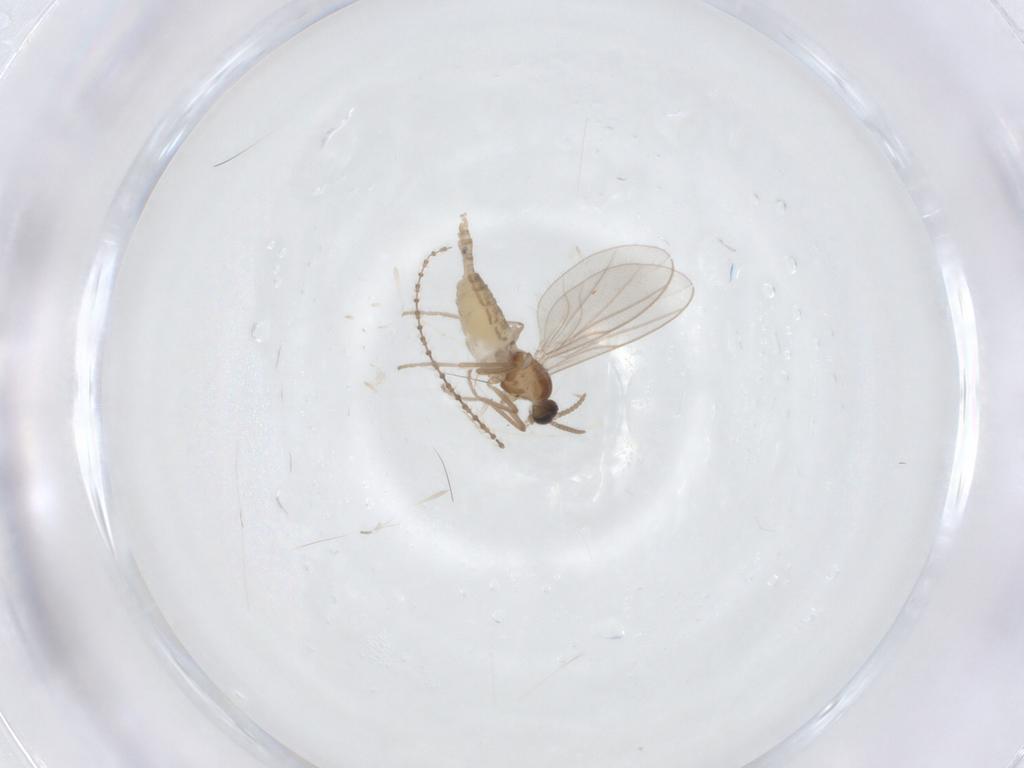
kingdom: Animalia
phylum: Arthropoda
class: Insecta
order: Diptera
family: Cecidomyiidae
